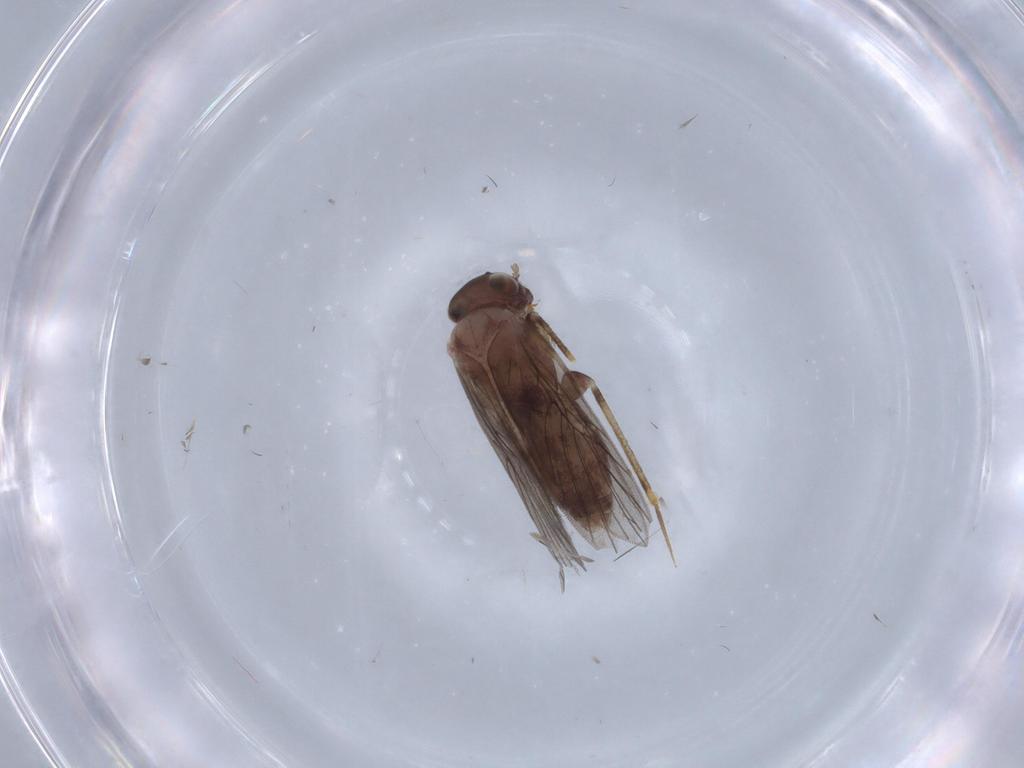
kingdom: Animalia
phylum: Arthropoda
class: Insecta
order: Psocodea
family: Lepidopsocidae
